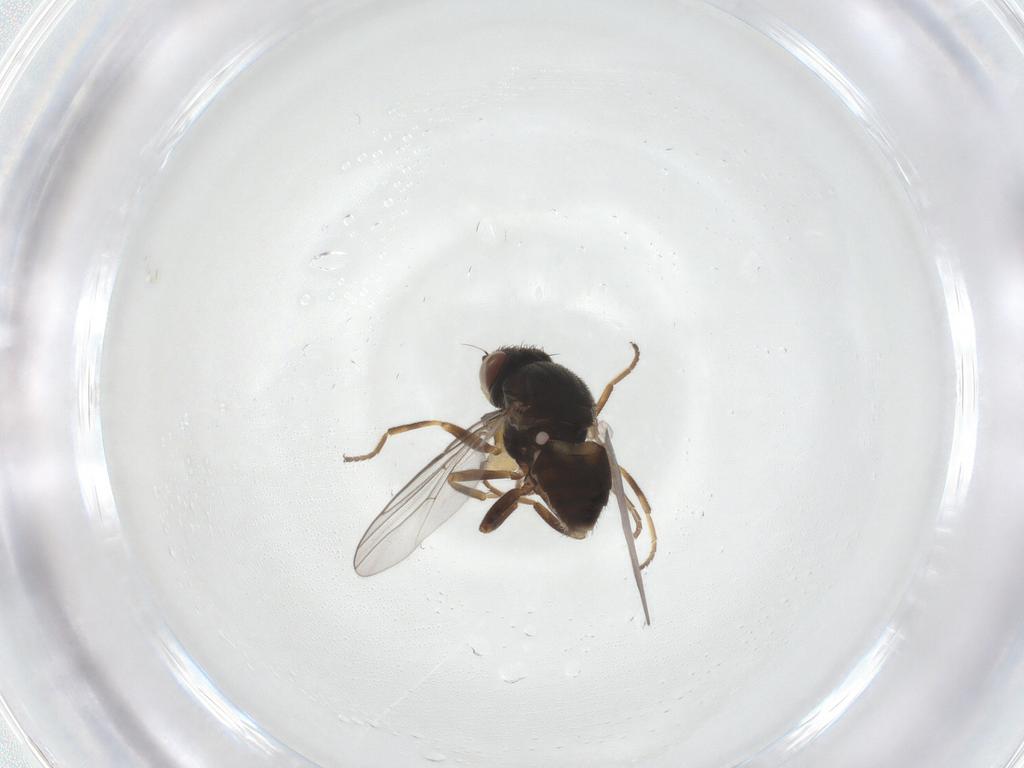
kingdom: Animalia
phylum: Arthropoda
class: Insecta
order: Diptera
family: Chloropidae
